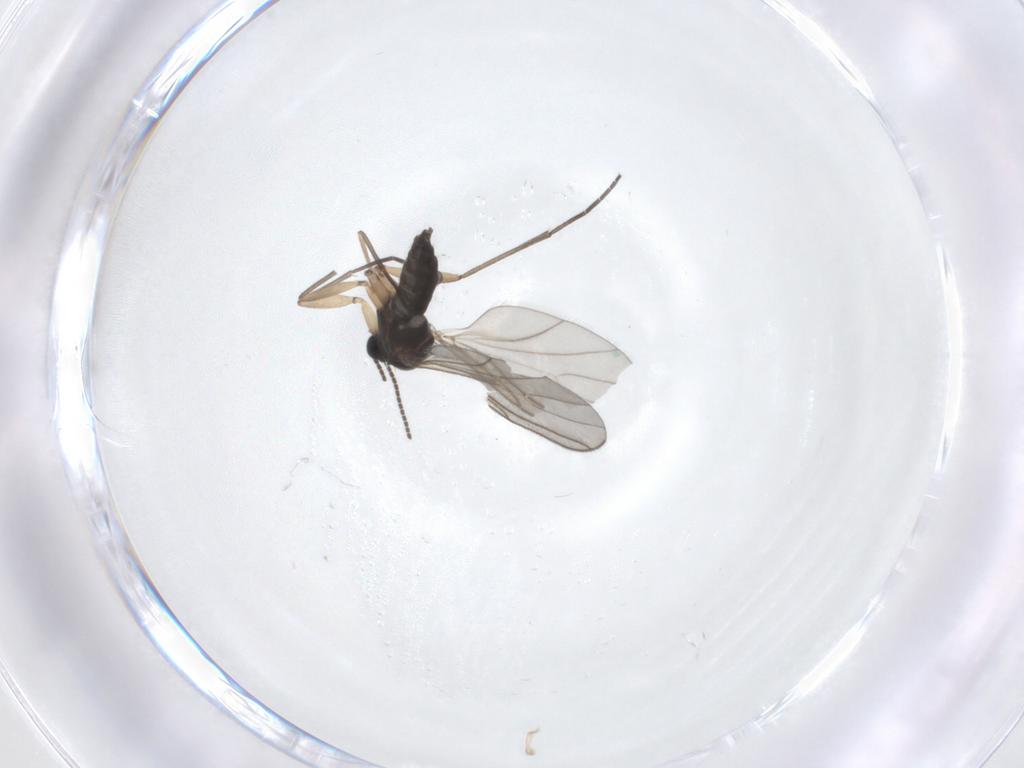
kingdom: Animalia
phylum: Arthropoda
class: Insecta
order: Diptera
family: Sciaridae
